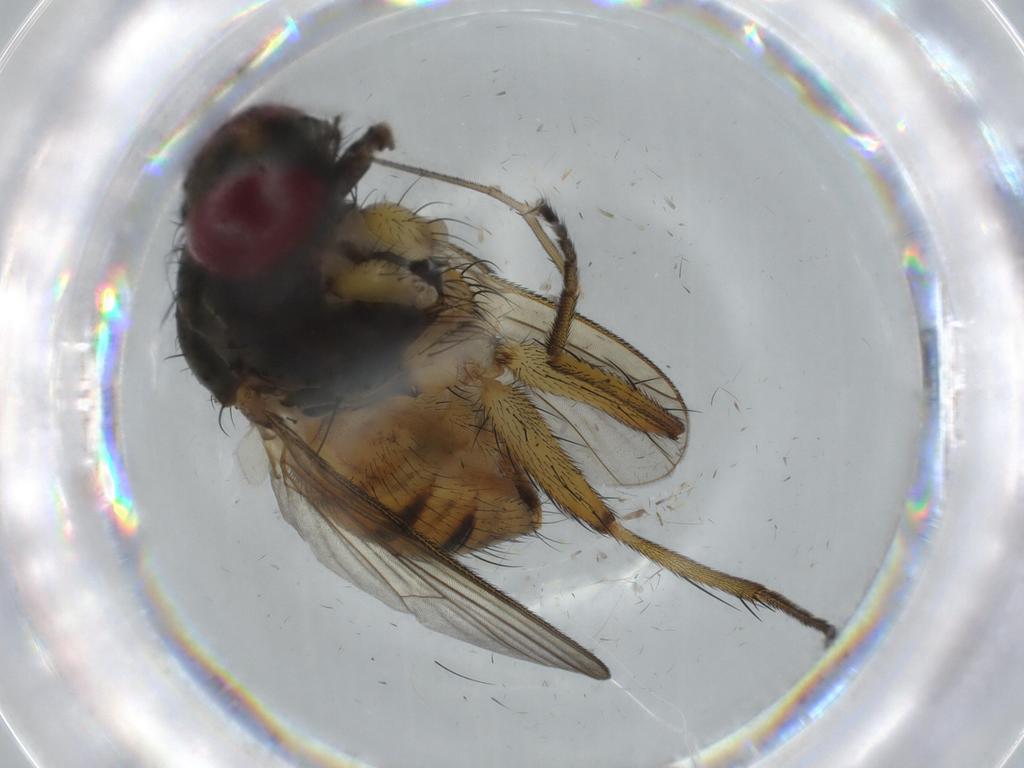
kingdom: Animalia
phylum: Arthropoda
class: Insecta
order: Diptera
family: Muscidae
